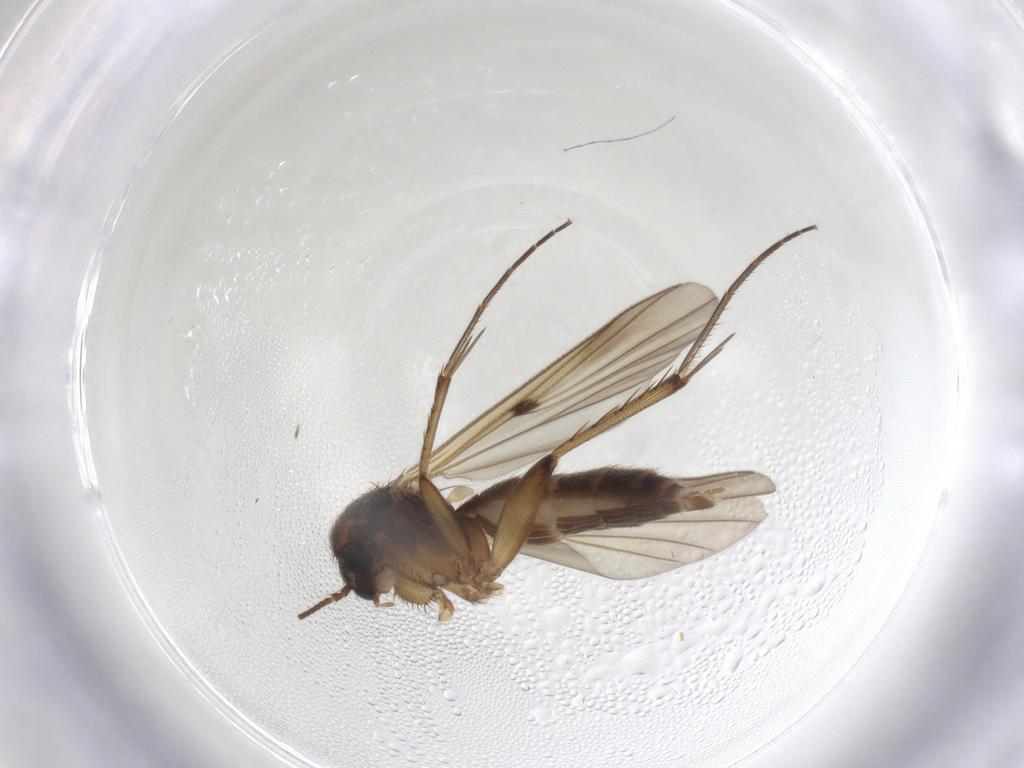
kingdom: Animalia
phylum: Arthropoda
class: Insecta
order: Diptera
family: Mycetophilidae
